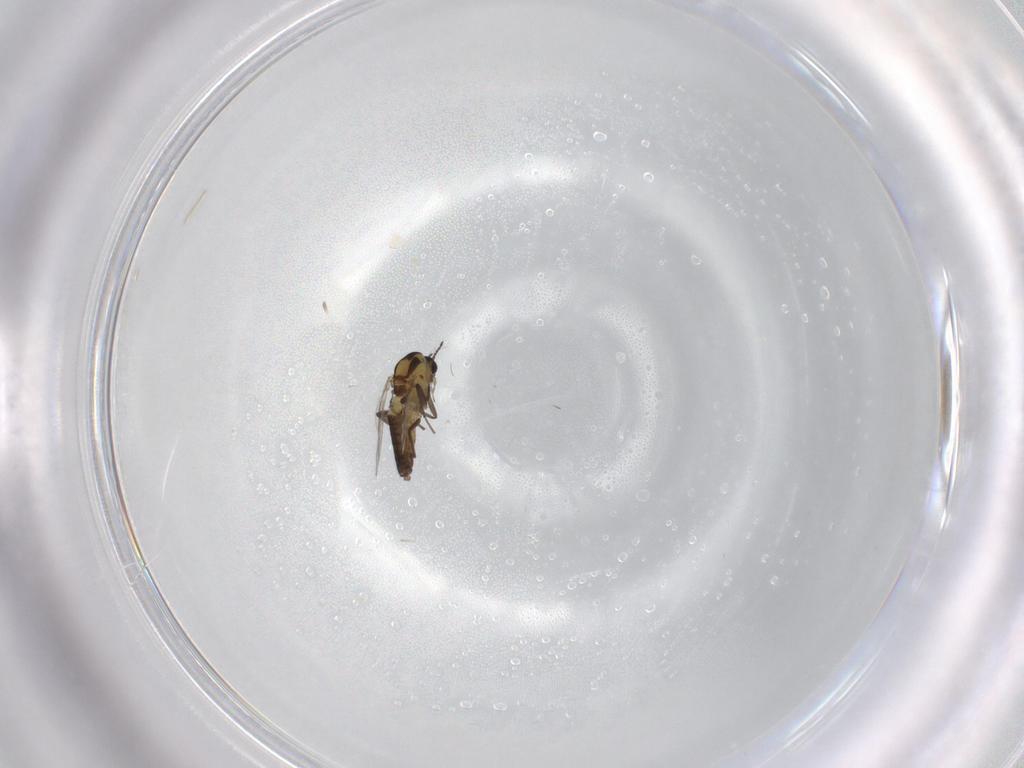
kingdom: Animalia
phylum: Arthropoda
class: Insecta
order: Diptera
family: Chironomidae
